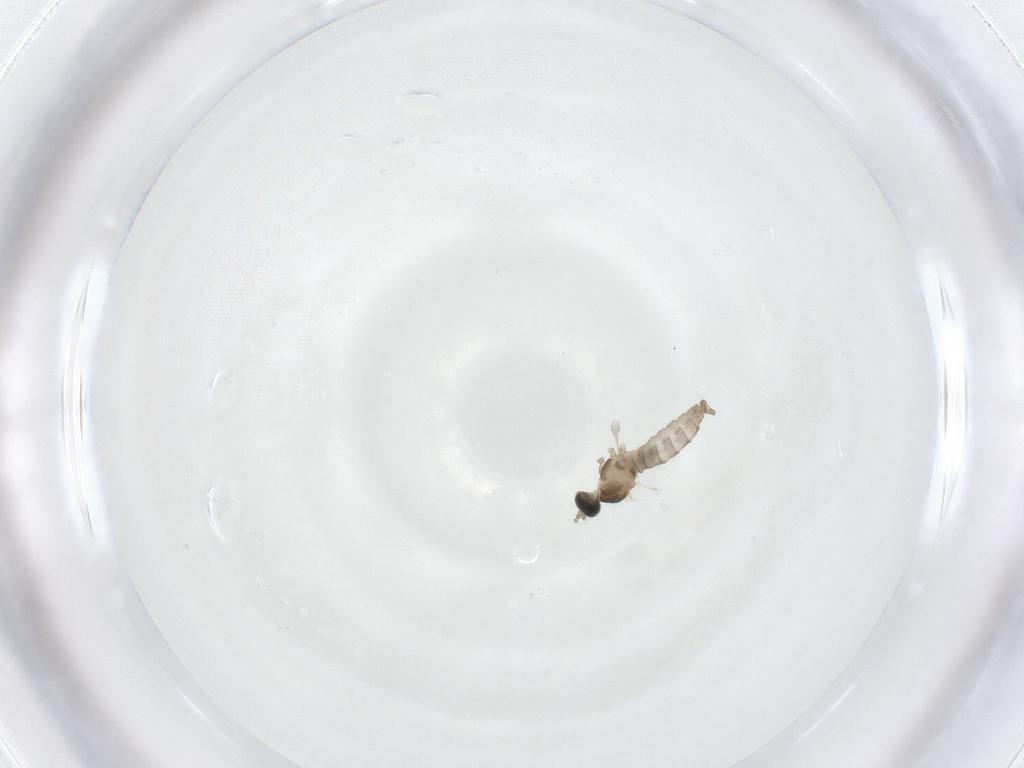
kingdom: Animalia
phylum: Arthropoda
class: Insecta
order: Diptera
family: Cecidomyiidae
